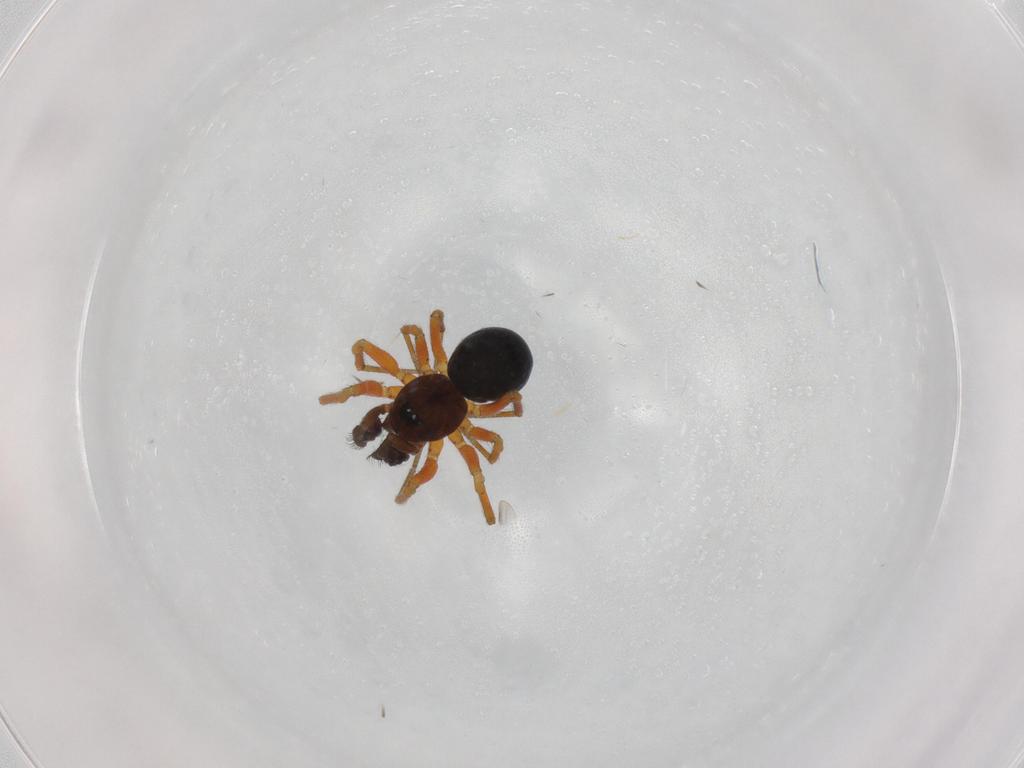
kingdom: Animalia
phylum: Arthropoda
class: Arachnida
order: Araneae
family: Linyphiidae
